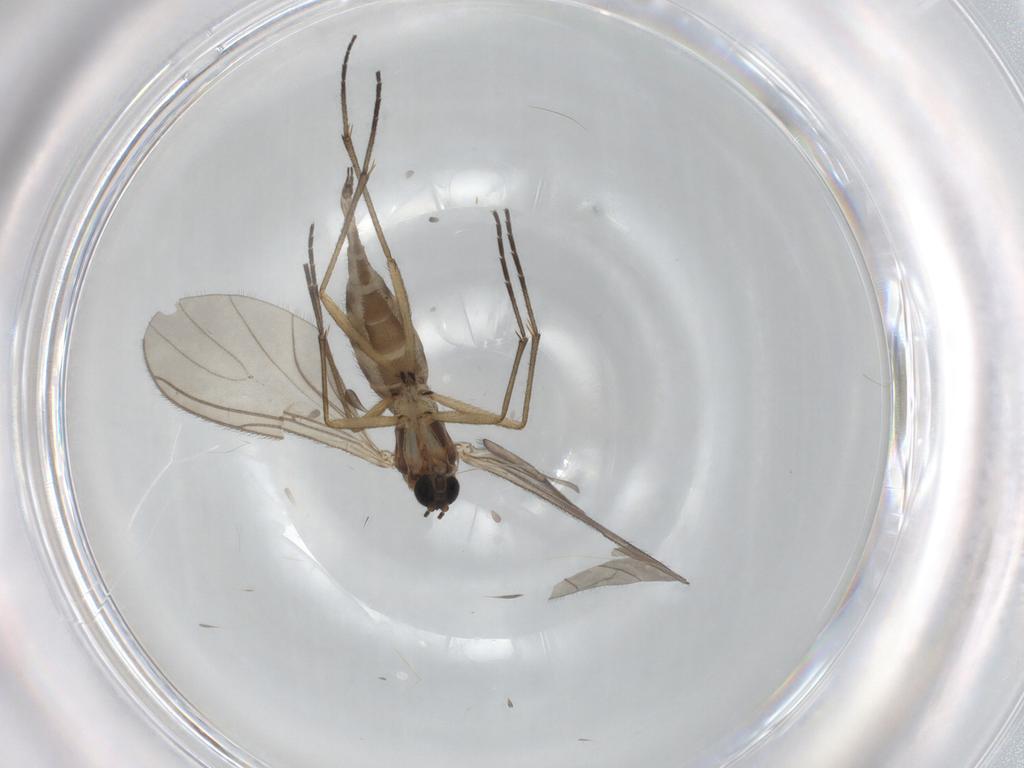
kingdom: Animalia
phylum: Arthropoda
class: Insecta
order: Diptera
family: Sciaridae
